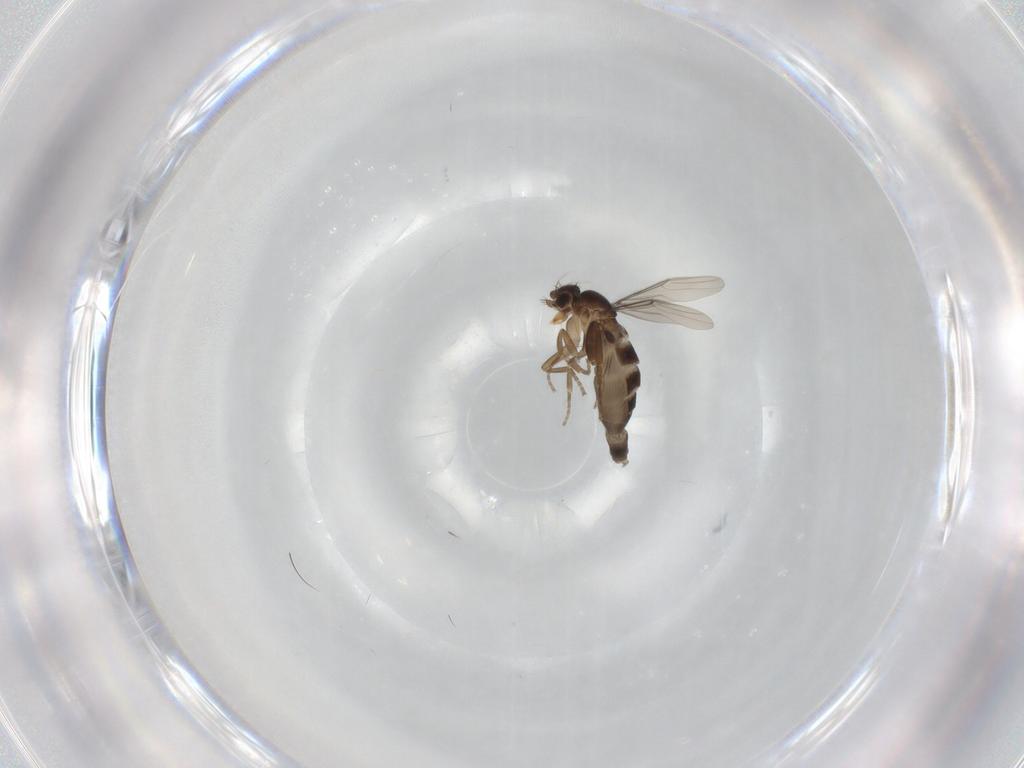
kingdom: Animalia
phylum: Arthropoda
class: Insecta
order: Diptera
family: Phoridae
